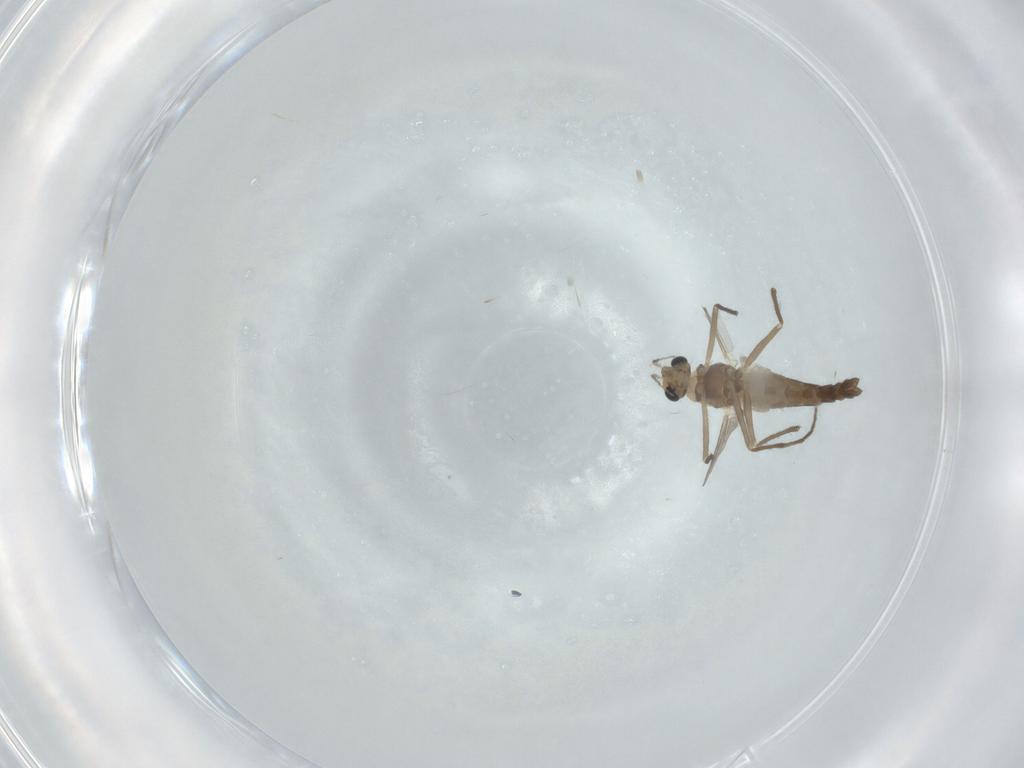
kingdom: Animalia
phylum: Arthropoda
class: Insecta
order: Diptera
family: Chironomidae
